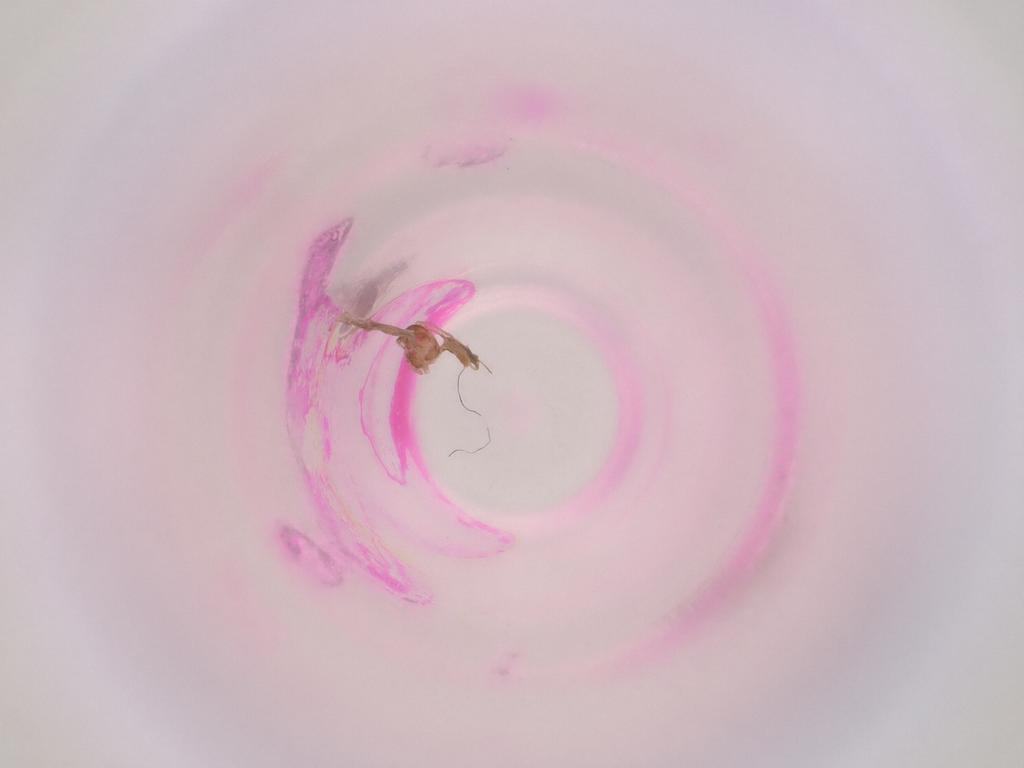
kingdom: Animalia
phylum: Arthropoda
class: Insecta
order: Diptera
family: Cecidomyiidae
